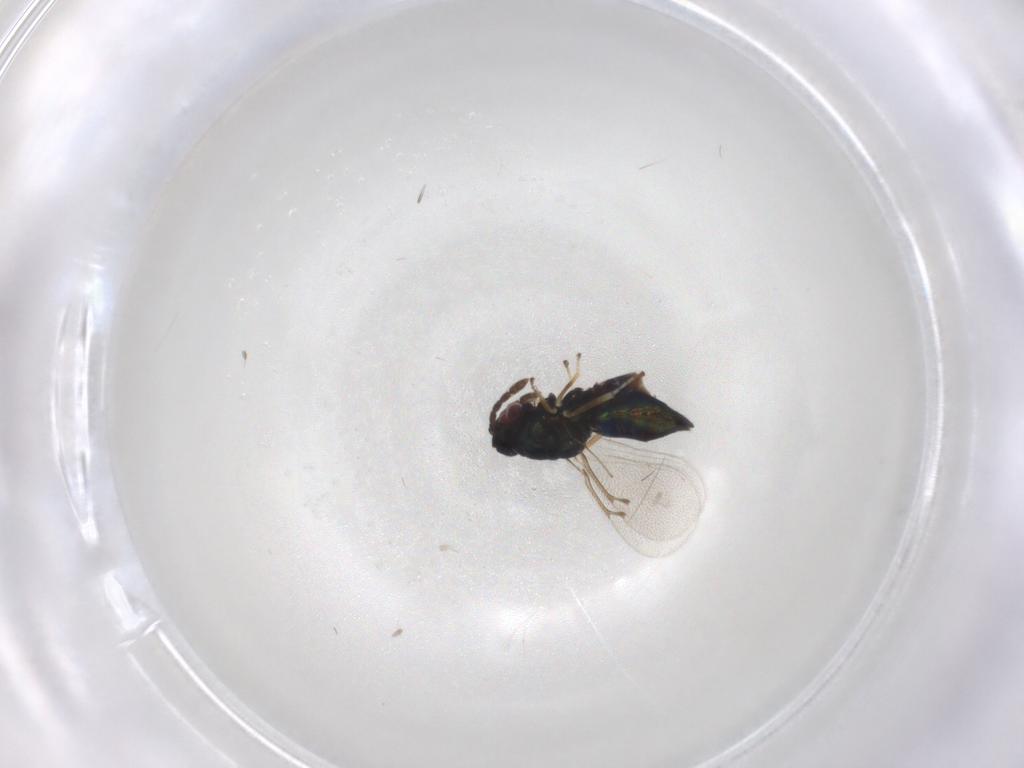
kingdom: Animalia
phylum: Arthropoda
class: Insecta
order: Hymenoptera
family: Eulophidae
